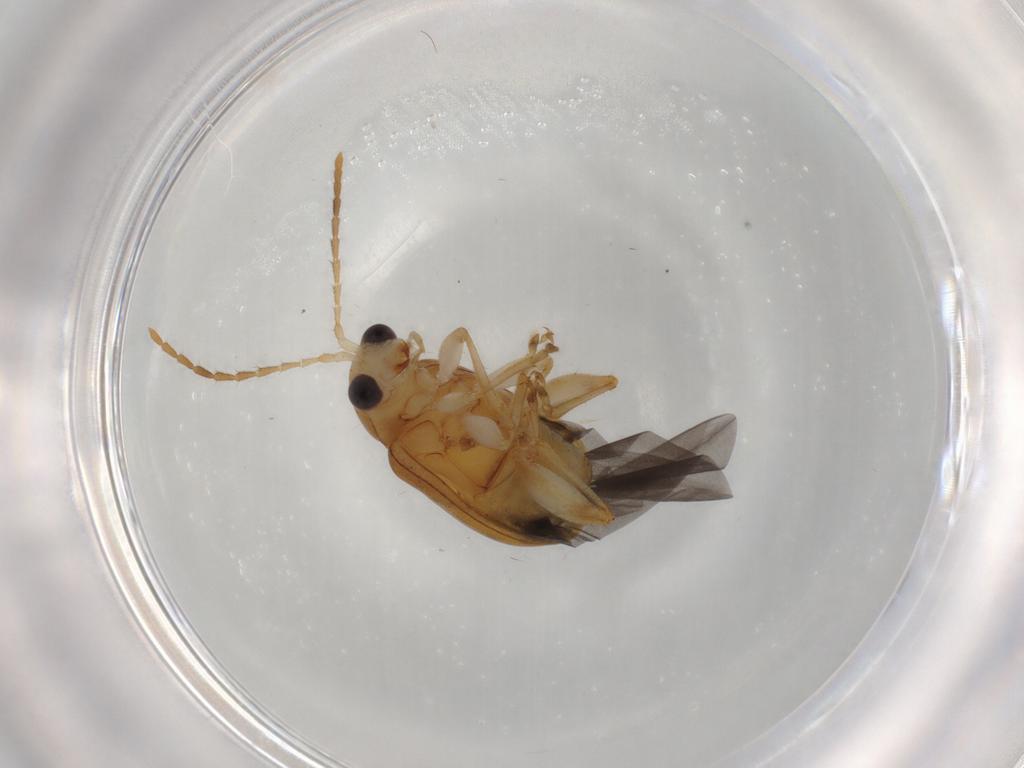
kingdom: Animalia
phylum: Arthropoda
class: Insecta
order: Coleoptera
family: Chrysomelidae
